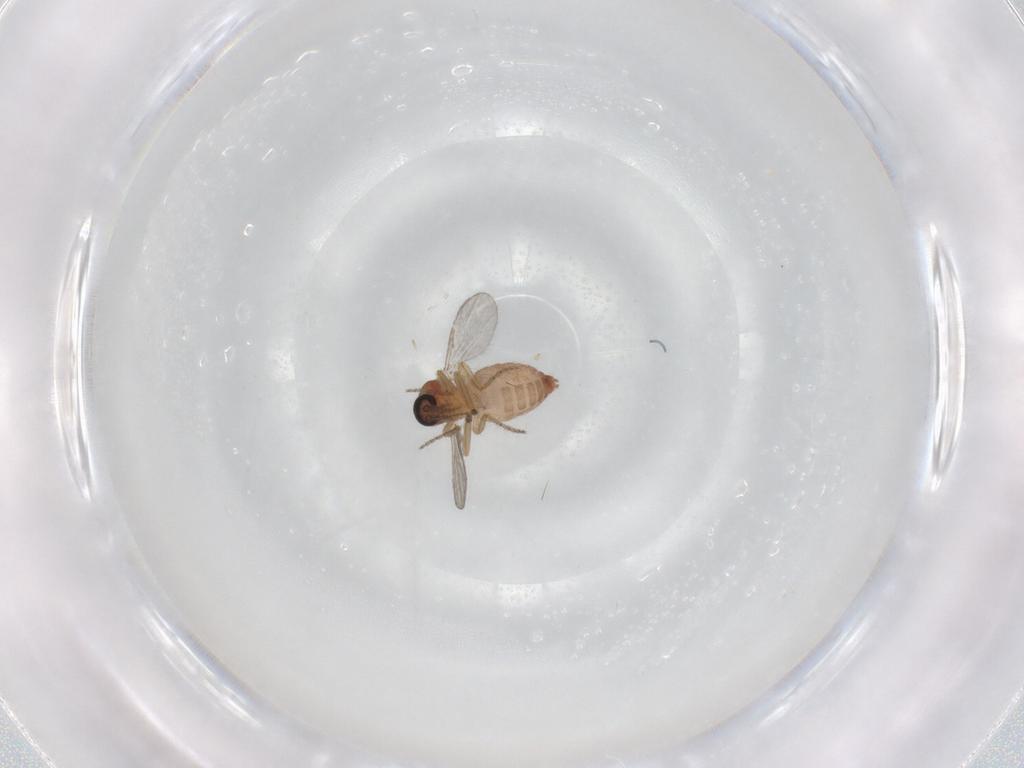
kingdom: Animalia
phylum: Arthropoda
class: Insecta
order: Diptera
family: Ceratopogonidae
